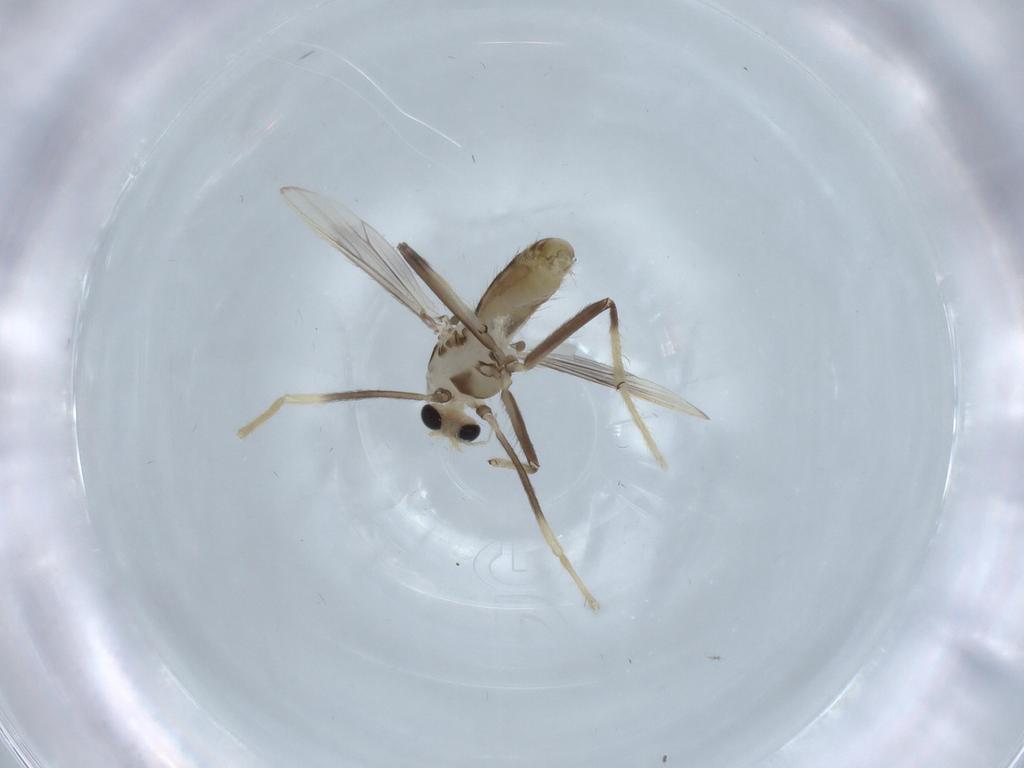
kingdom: Animalia
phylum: Arthropoda
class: Insecta
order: Diptera
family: Chironomidae
